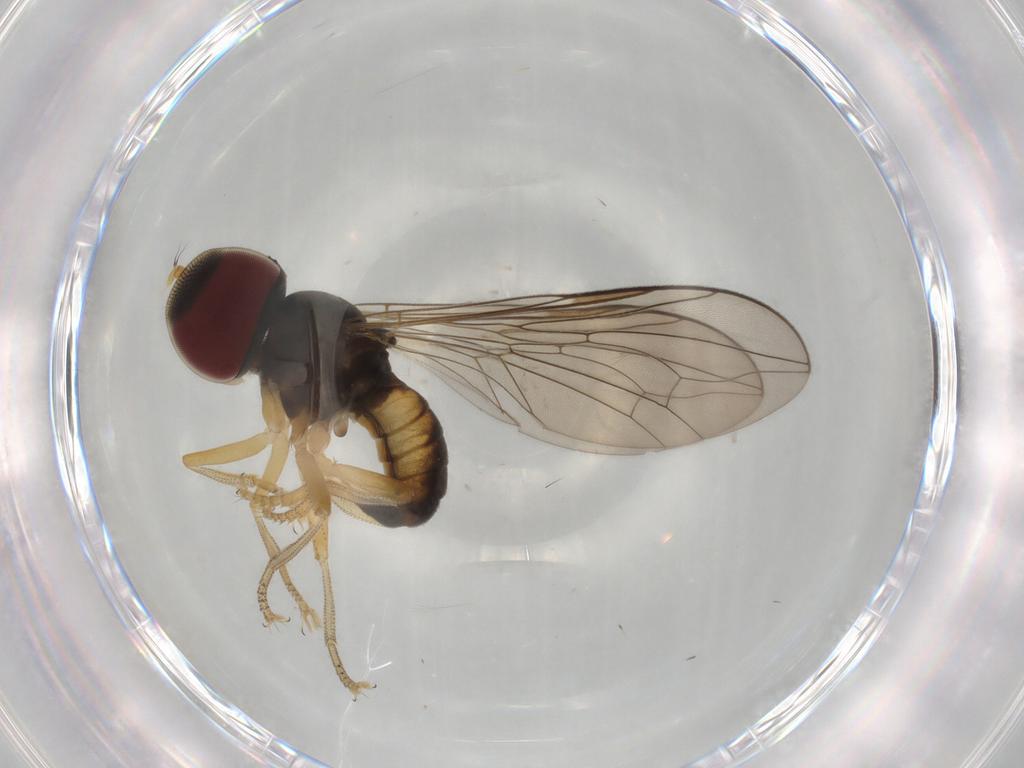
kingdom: Animalia
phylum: Arthropoda
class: Insecta
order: Diptera
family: Pipunculidae
